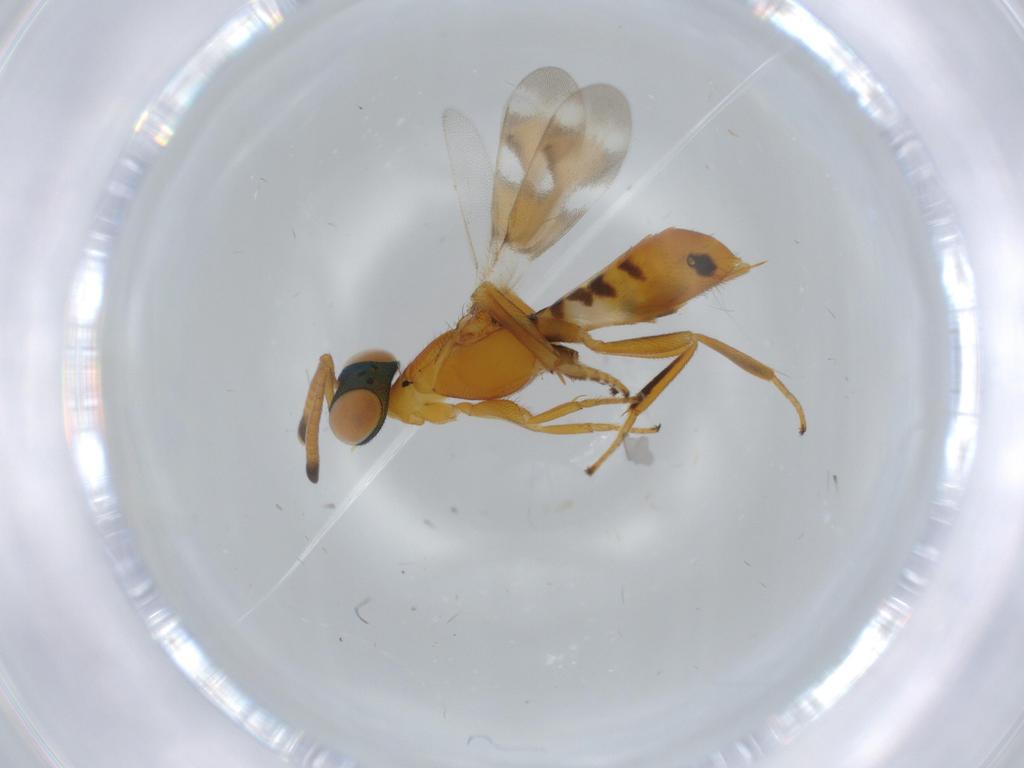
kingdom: Animalia
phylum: Arthropoda
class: Insecta
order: Hymenoptera
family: Eupelmidae
